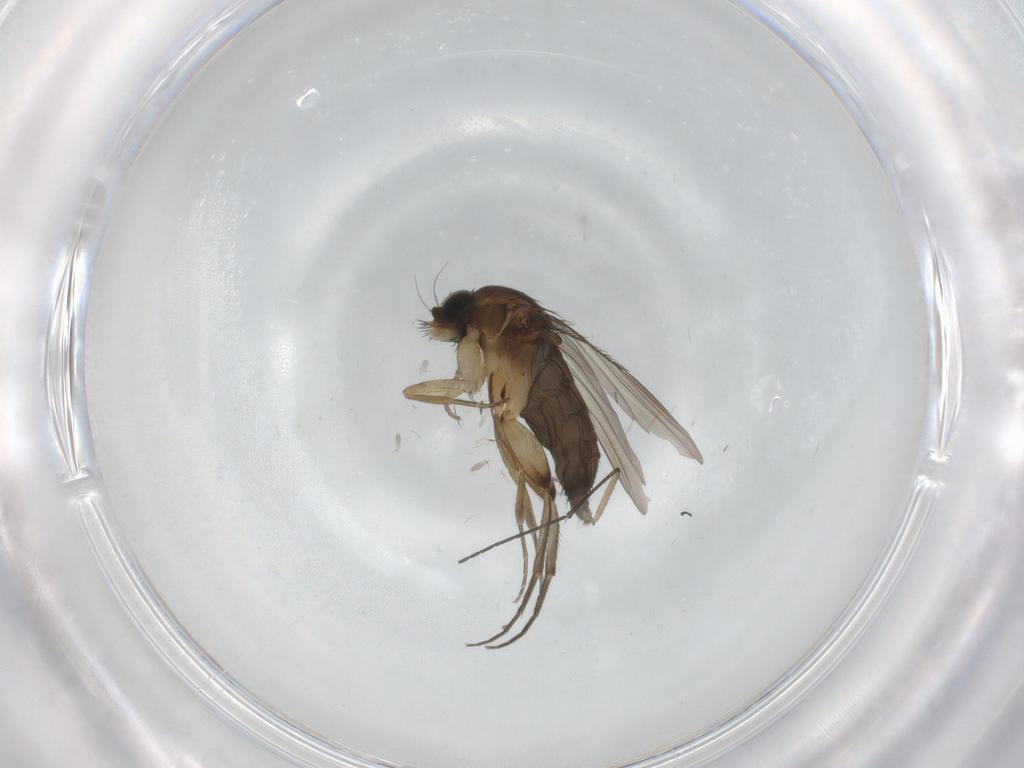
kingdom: Animalia
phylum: Arthropoda
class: Insecta
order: Diptera
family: Phoridae
